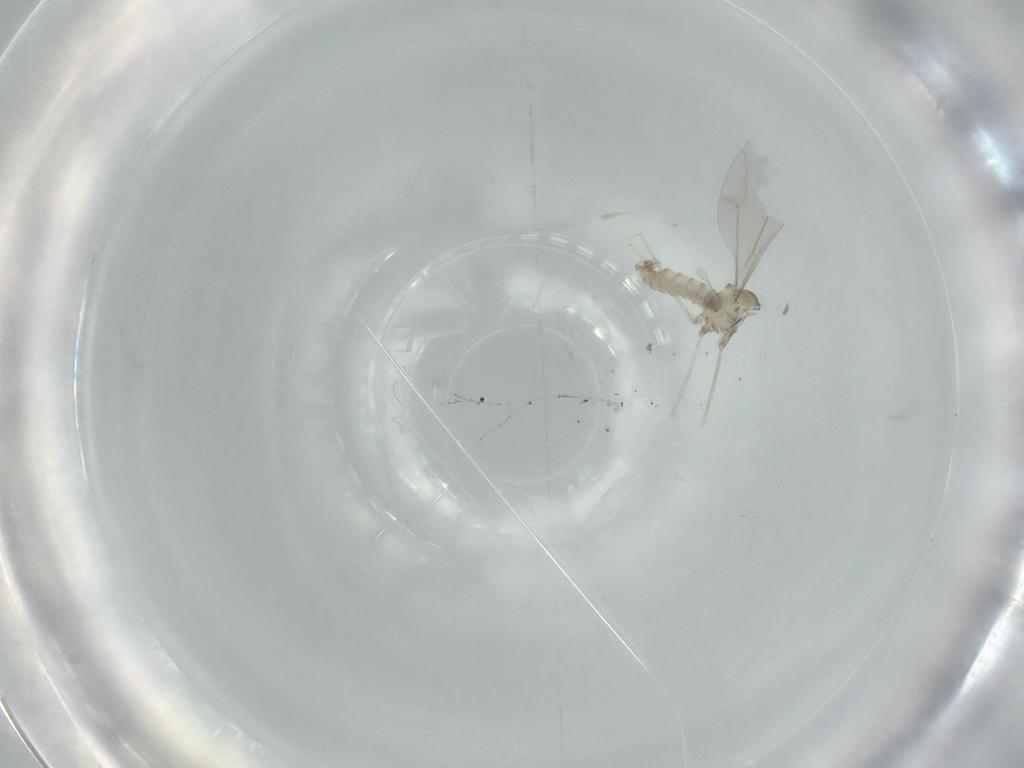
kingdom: Animalia
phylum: Arthropoda
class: Insecta
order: Diptera
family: Cecidomyiidae
